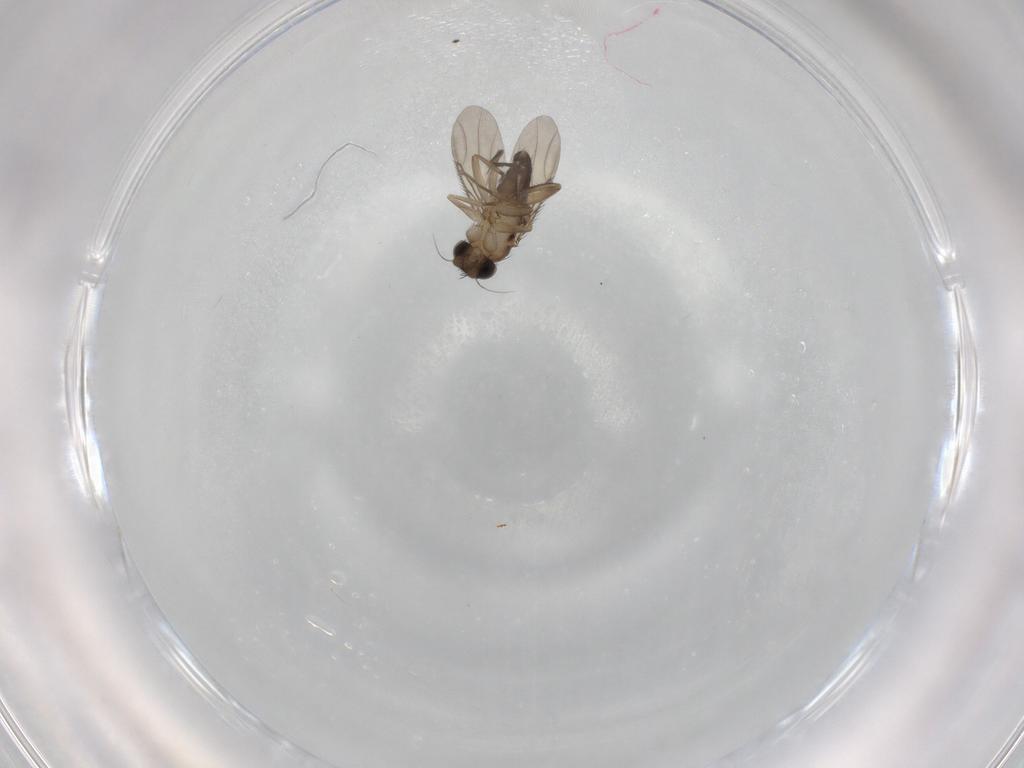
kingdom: Animalia
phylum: Arthropoda
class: Insecta
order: Diptera
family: Phoridae
